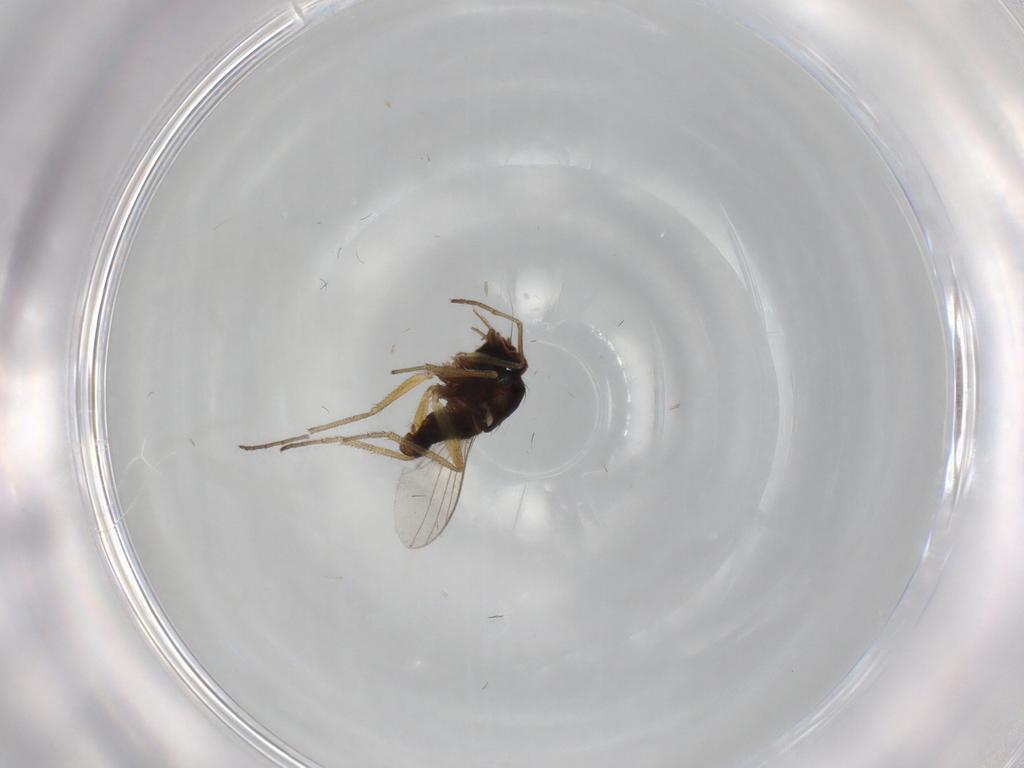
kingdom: Animalia
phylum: Arthropoda
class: Insecta
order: Diptera
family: Dolichopodidae
